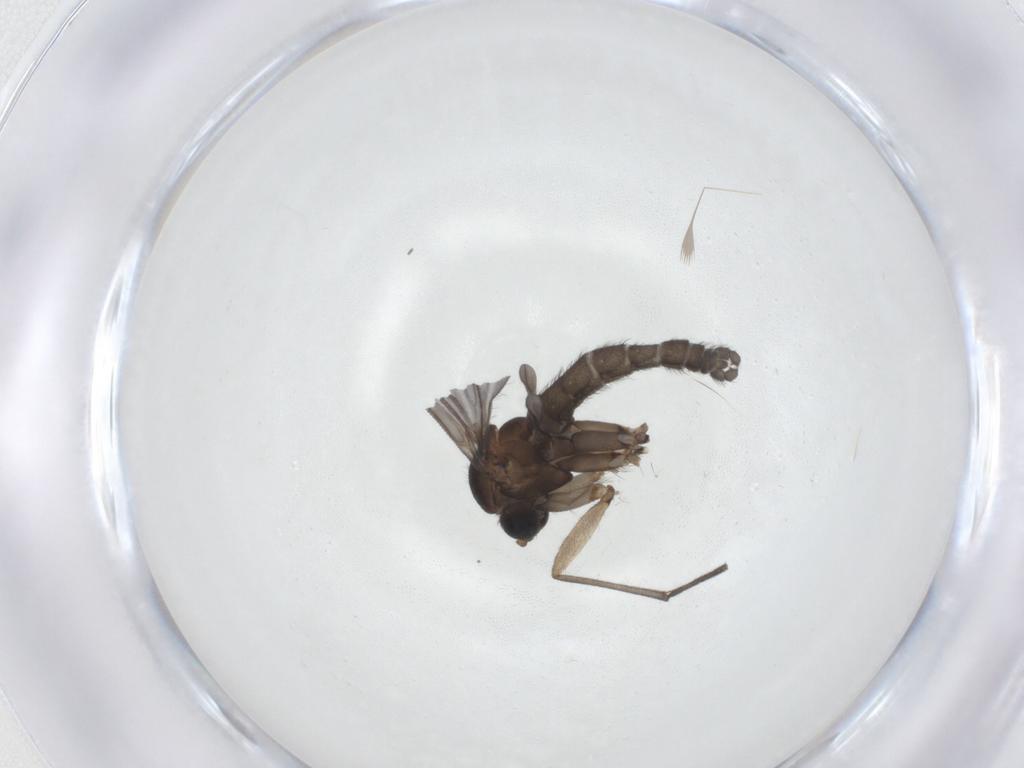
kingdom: Animalia
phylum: Arthropoda
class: Insecta
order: Diptera
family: Sciaridae
